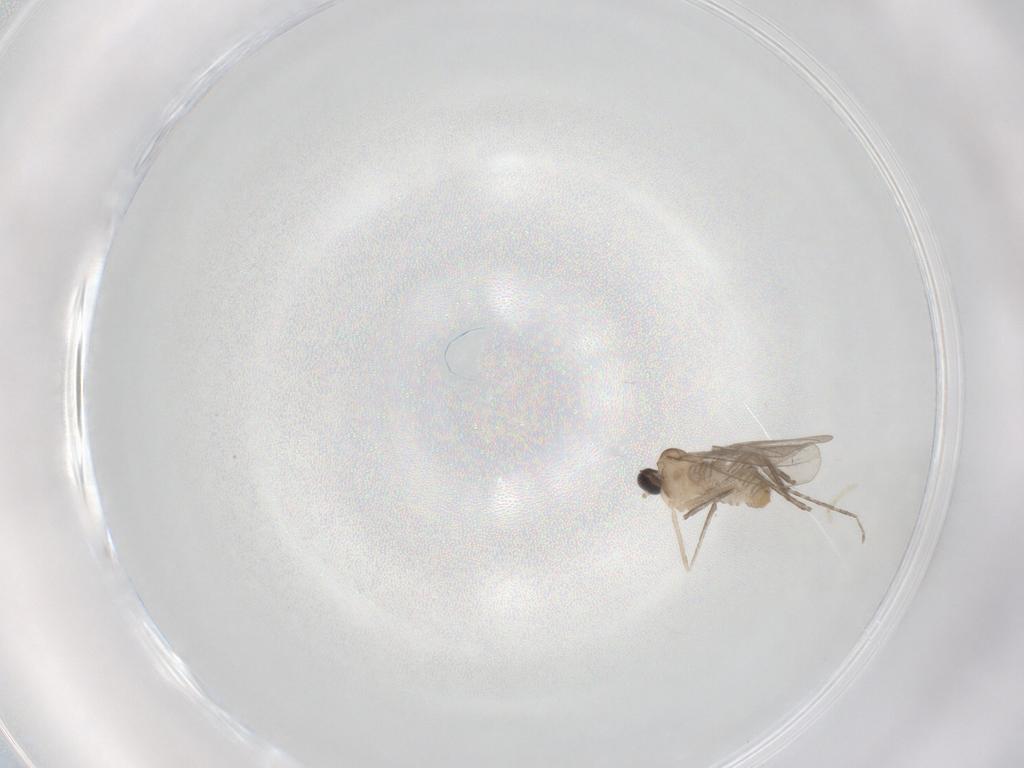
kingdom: Animalia
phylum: Arthropoda
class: Insecta
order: Diptera
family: Cecidomyiidae
